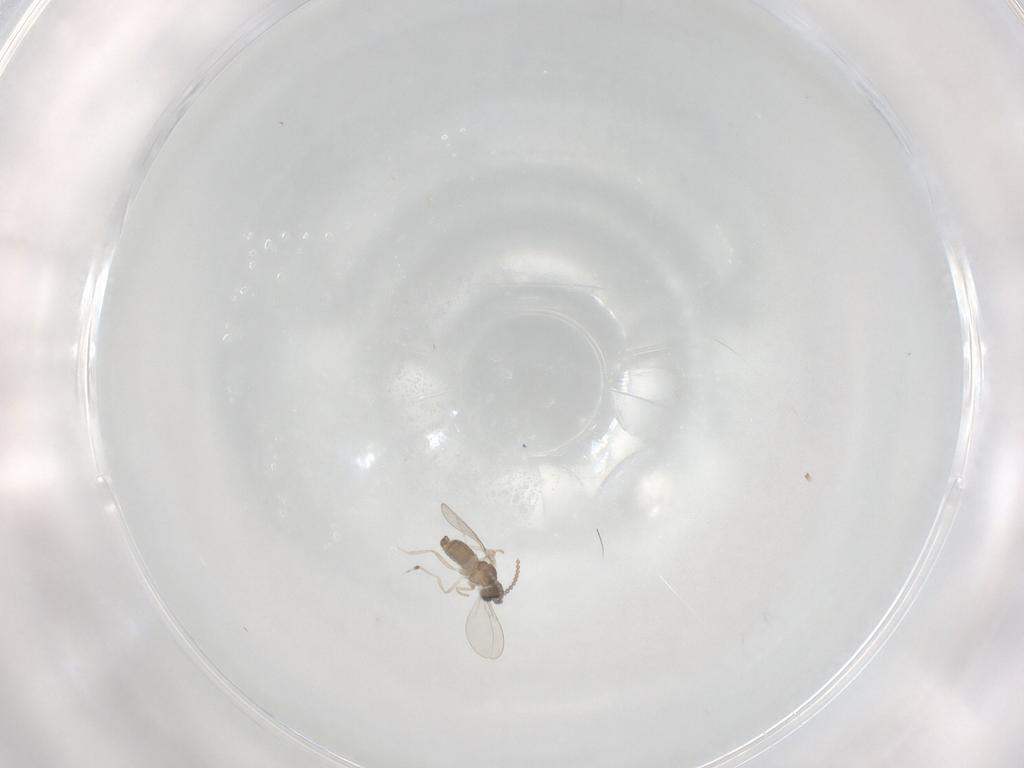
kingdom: Animalia
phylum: Arthropoda
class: Insecta
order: Diptera
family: Cecidomyiidae
